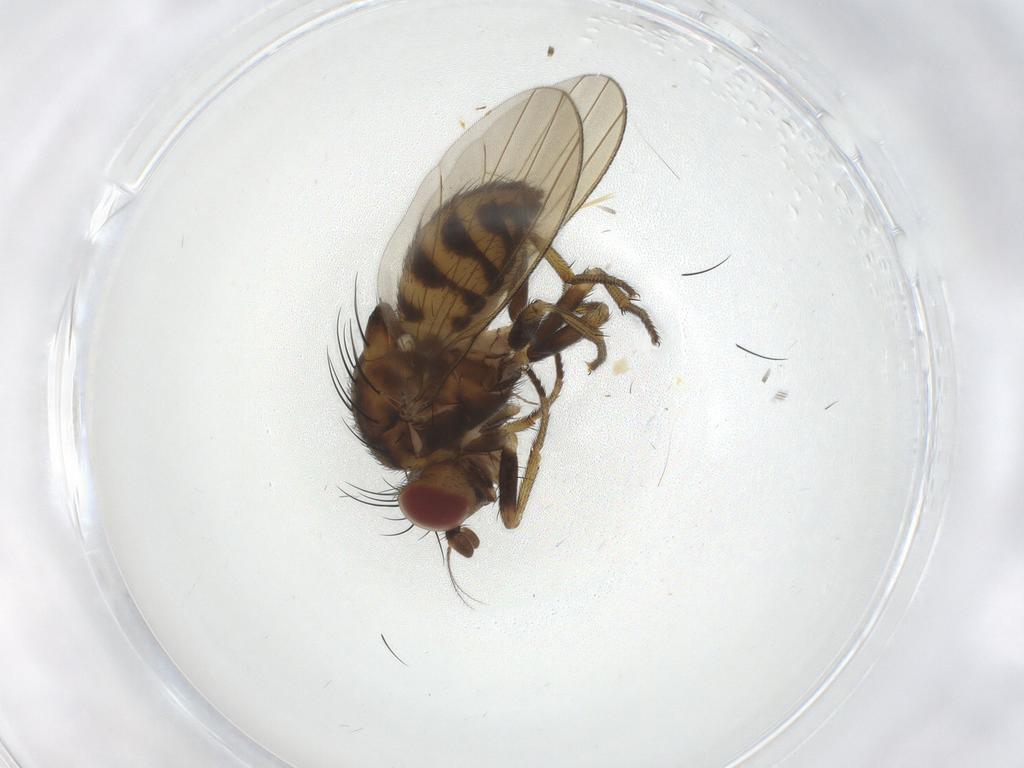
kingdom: Animalia
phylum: Arthropoda
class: Insecta
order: Diptera
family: Chironomidae
